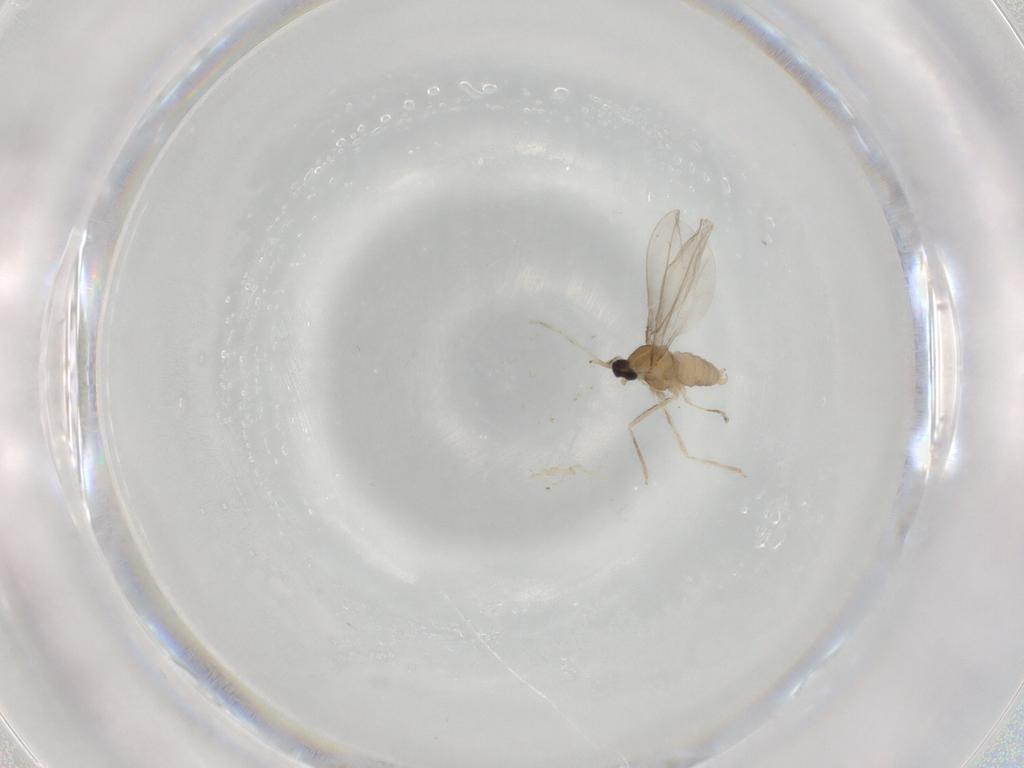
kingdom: Animalia
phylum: Arthropoda
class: Insecta
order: Diptera
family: Cecidomyiidae
